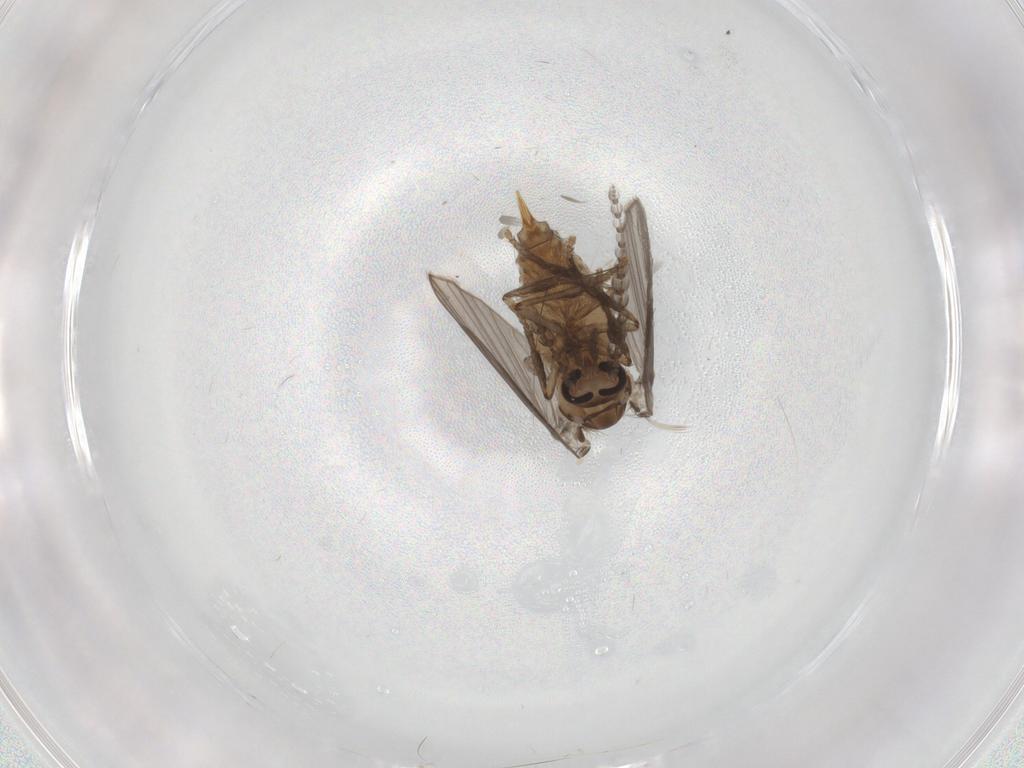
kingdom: Animalia
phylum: Arthropoda
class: Insecta
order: Diptera
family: Psychodidae
